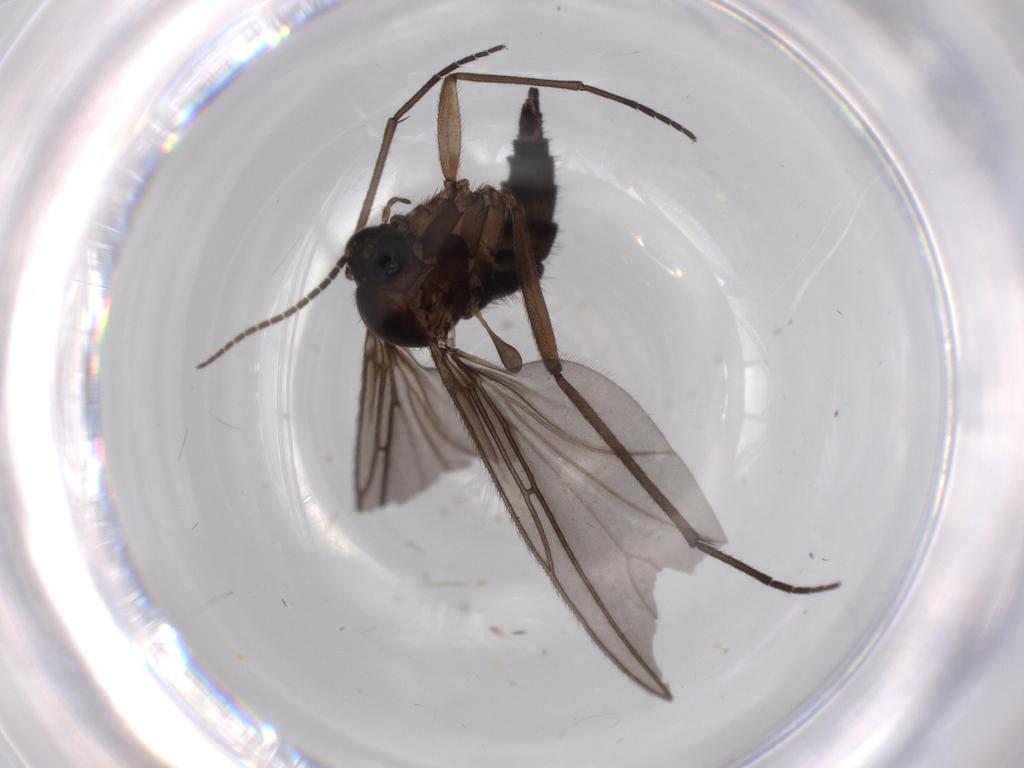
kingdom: Animalia
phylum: Arthropoda
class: Insecta
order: Diptera
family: Sciaridae
